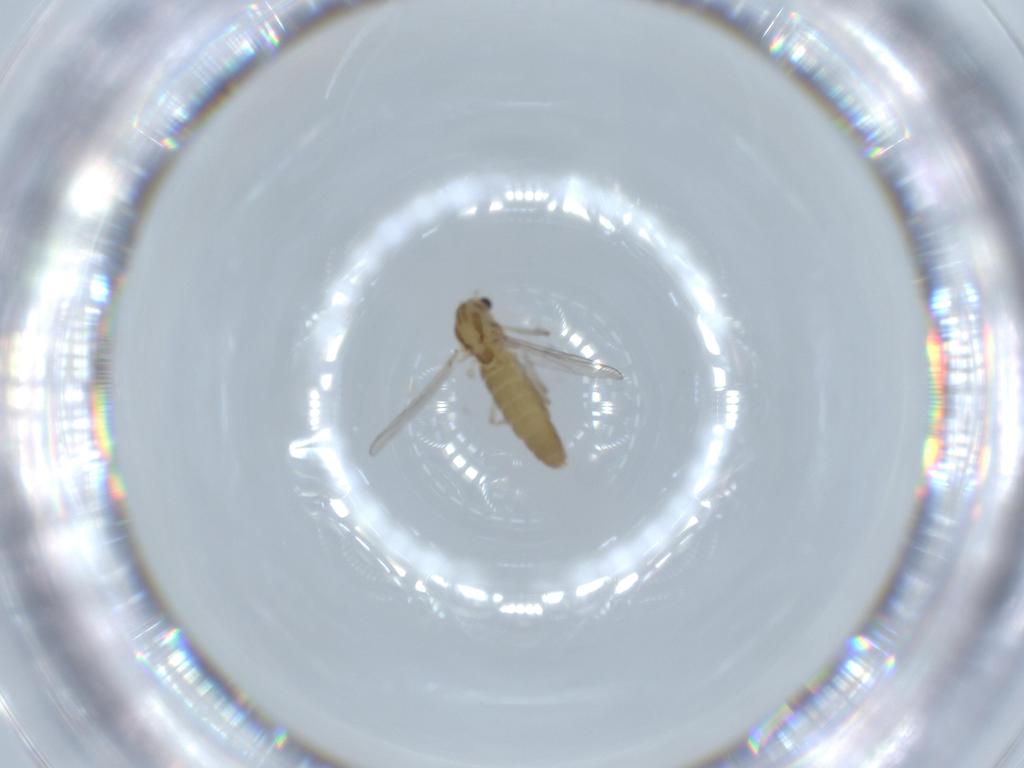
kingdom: Animalia
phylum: Arthropoda
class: Insecta
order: Diptera
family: Chironomidae
